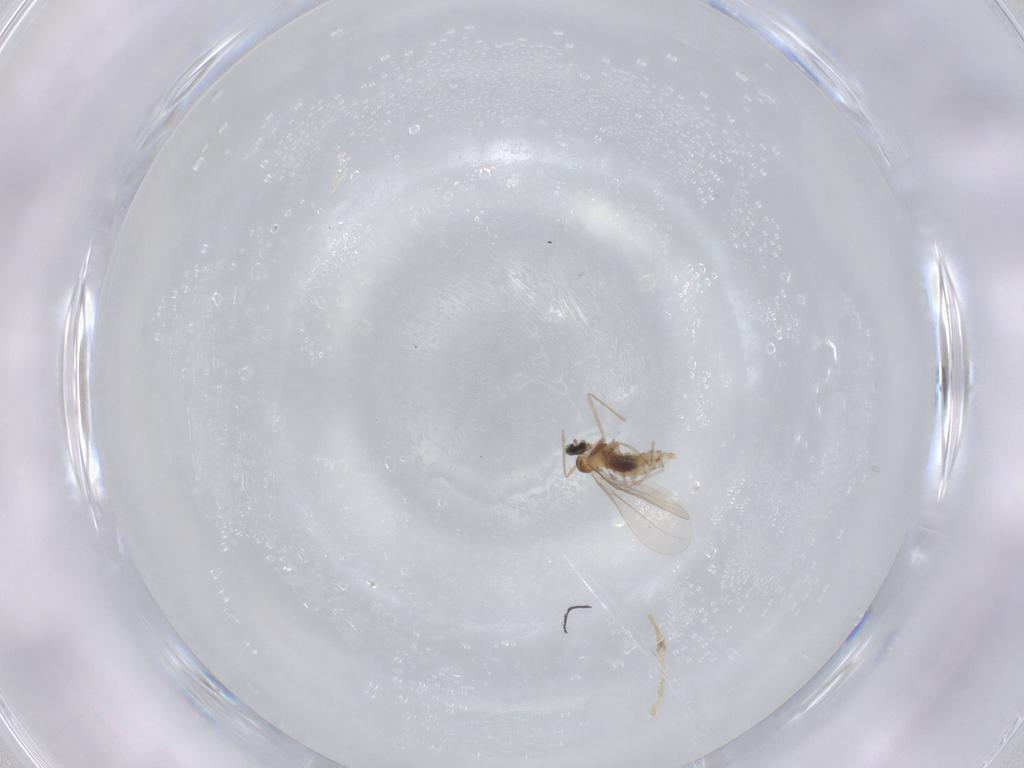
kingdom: Animalia
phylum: Arthropoda
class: Insecta
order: Diptera
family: Cecidomyiidae
